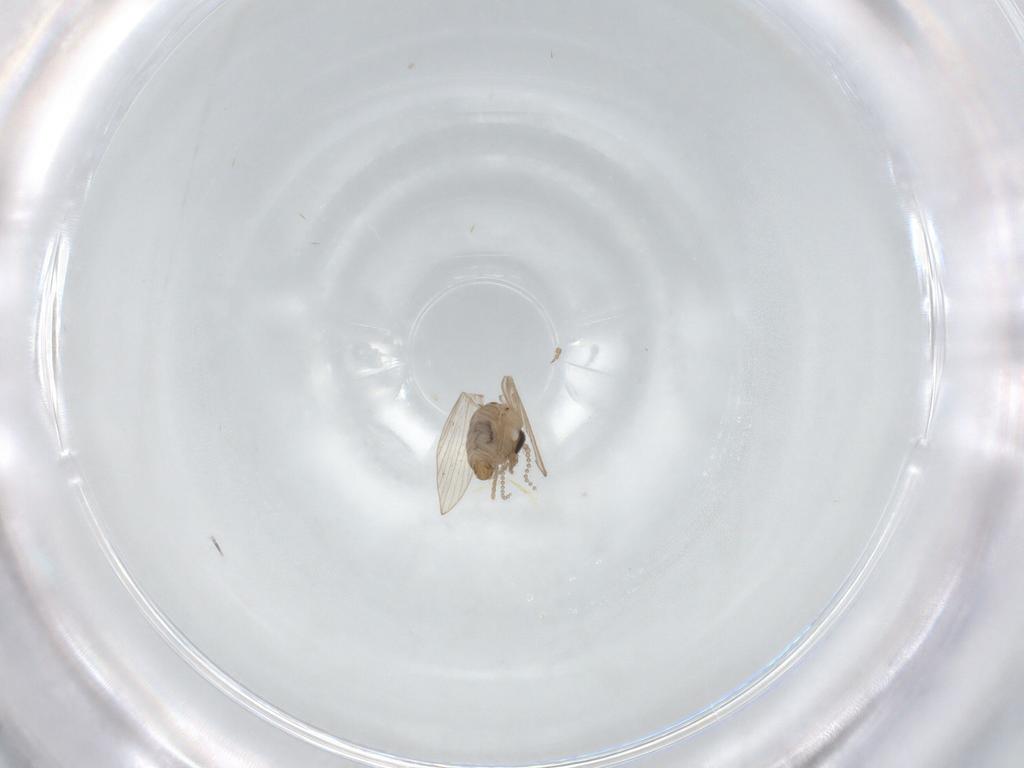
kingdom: Animalia
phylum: Arthropoda
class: Insecta
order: Diptera
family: Psychodidae
